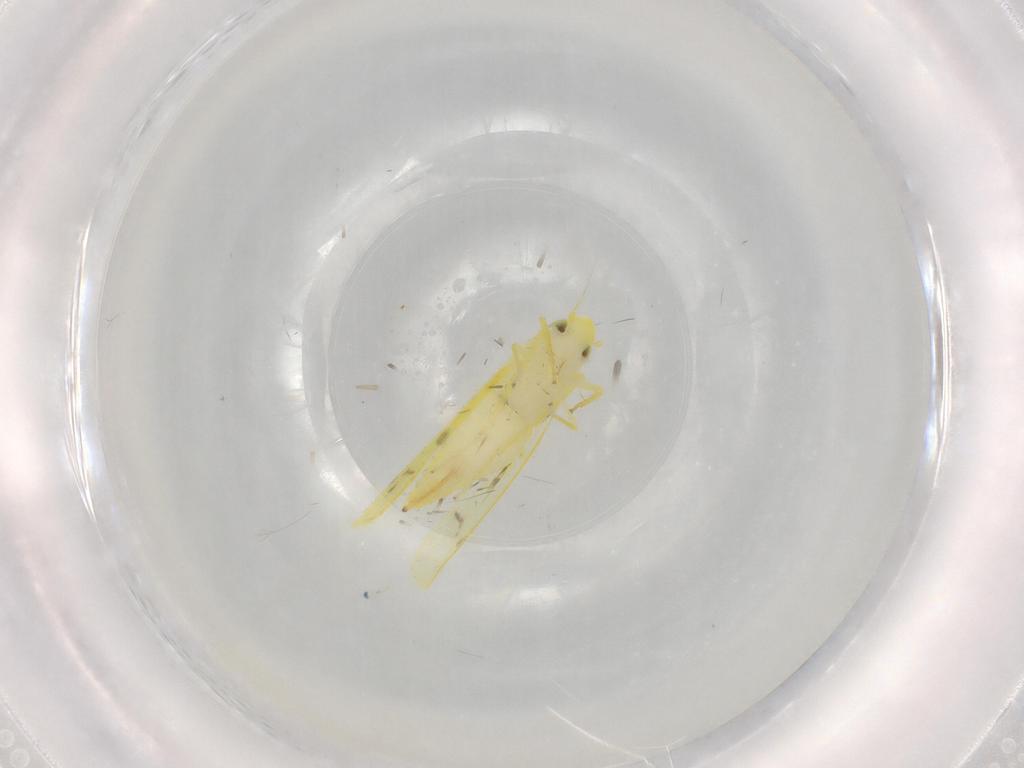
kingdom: Animalia
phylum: Arthropoda
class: Insecta
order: Hemiptera
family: Cicadellidae
